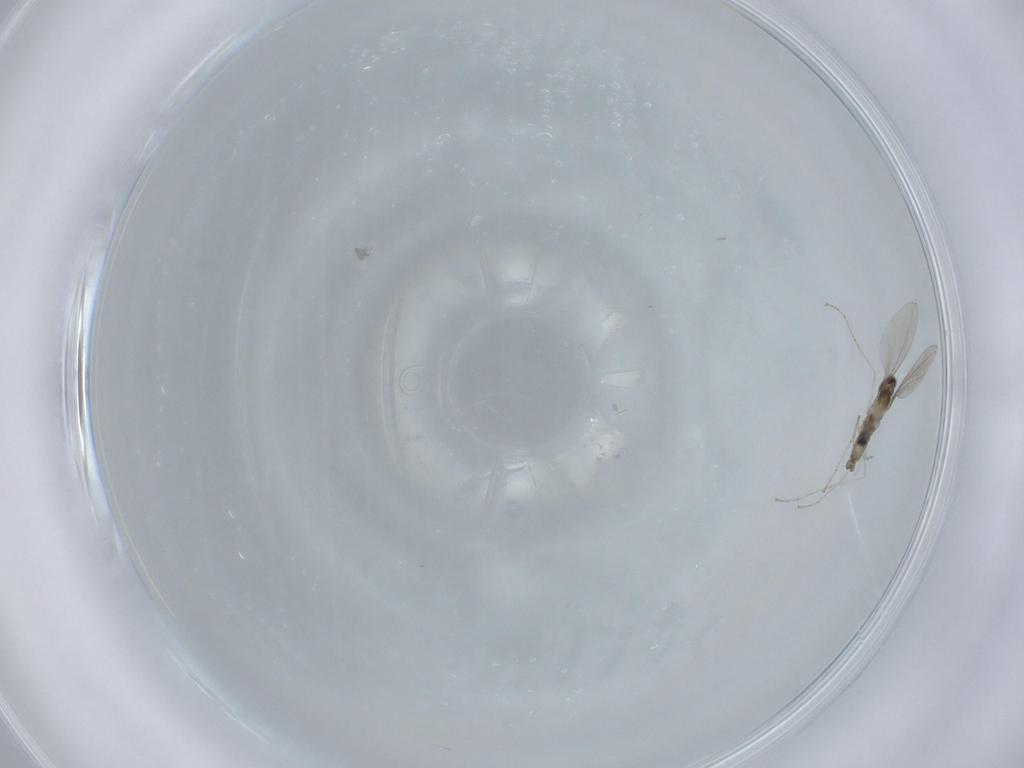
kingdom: Animalia
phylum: Arthropoda
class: Insecta
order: Diptera
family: Cecidomyiidae
